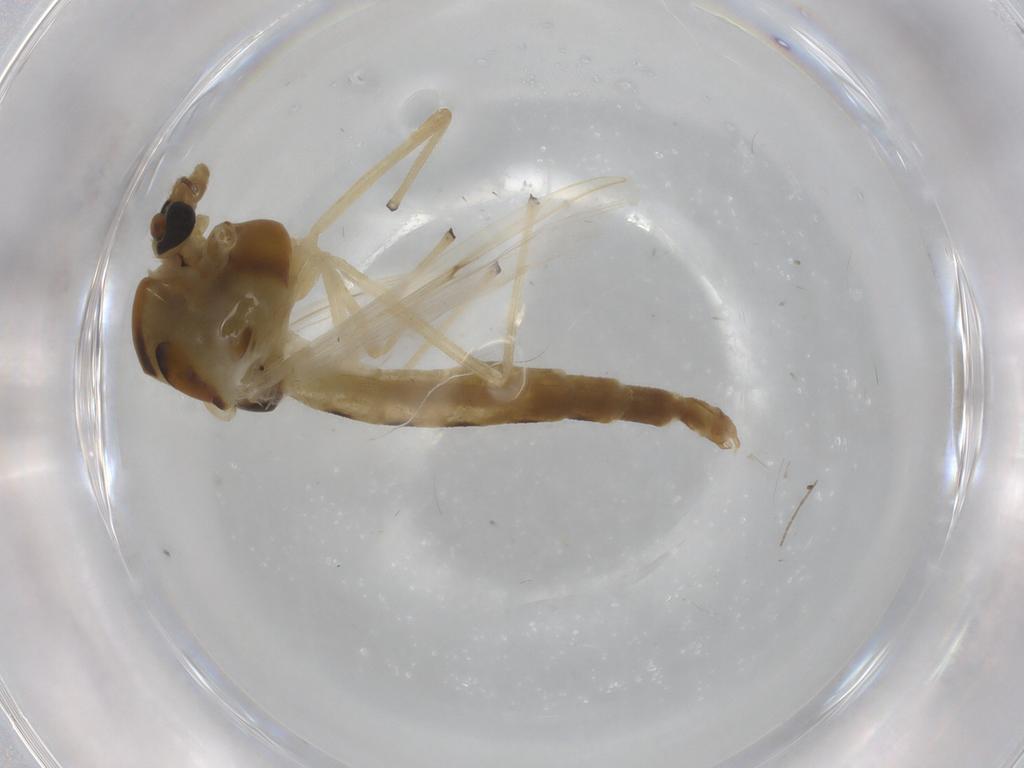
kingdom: Animalia
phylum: Arthropoda
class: Insecta
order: Diptera
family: Chironomidae
